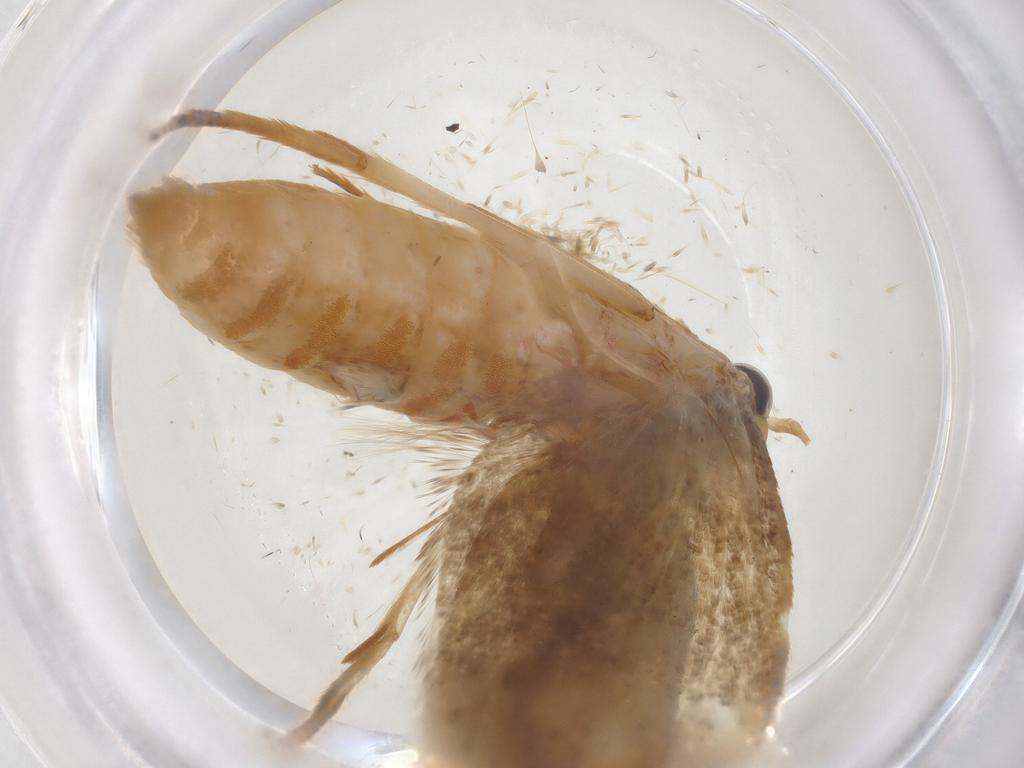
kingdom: Animalia
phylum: Arthropoda
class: Insecta
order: Lepidoptera
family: Oecophoridae
